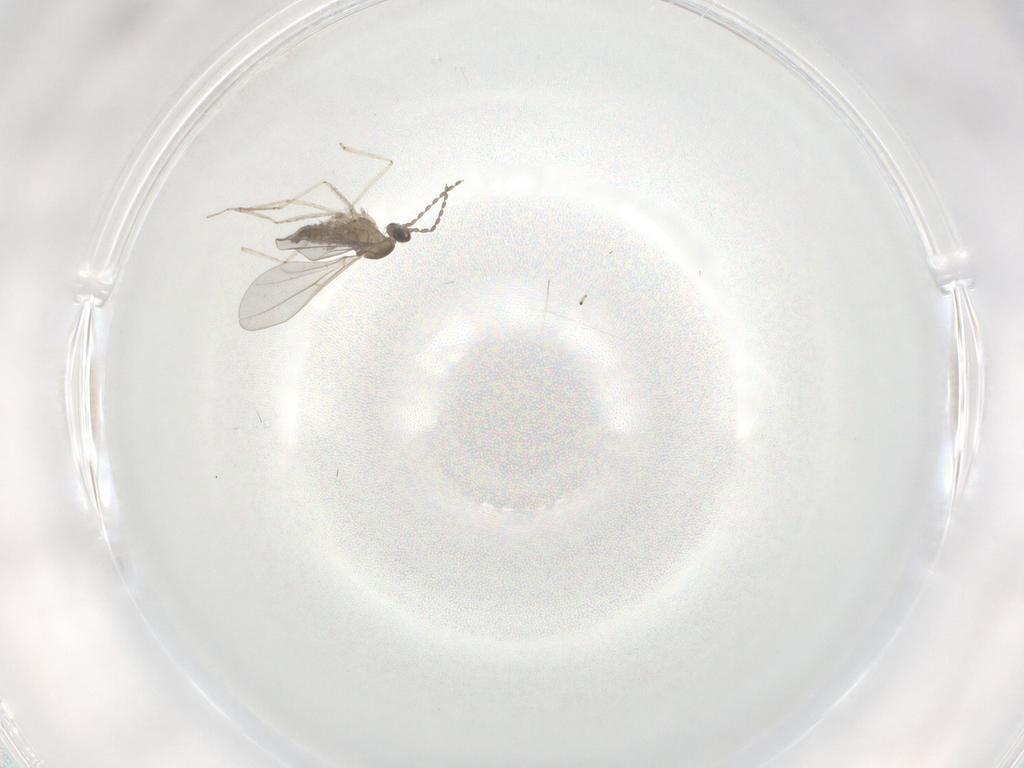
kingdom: Animalia
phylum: Arthropoda
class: Insecta
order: Diptera
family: Cecidomyiidae
